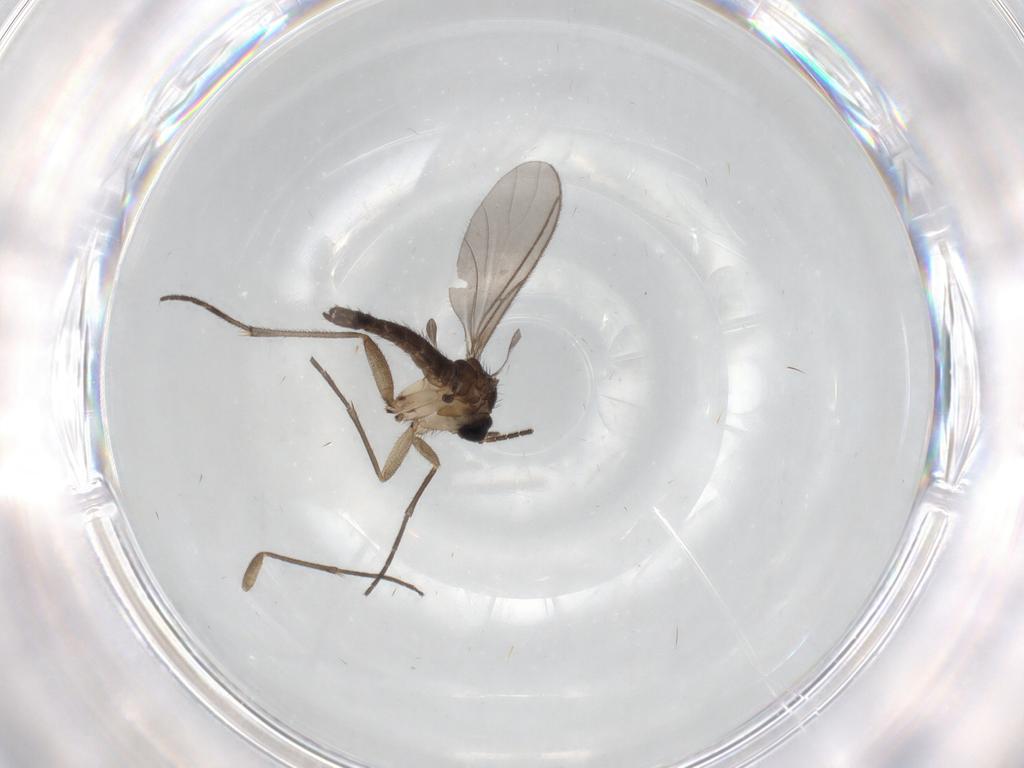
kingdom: Animalia
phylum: Arthropoda
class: Insecta
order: Diptera
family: Sciaridae
